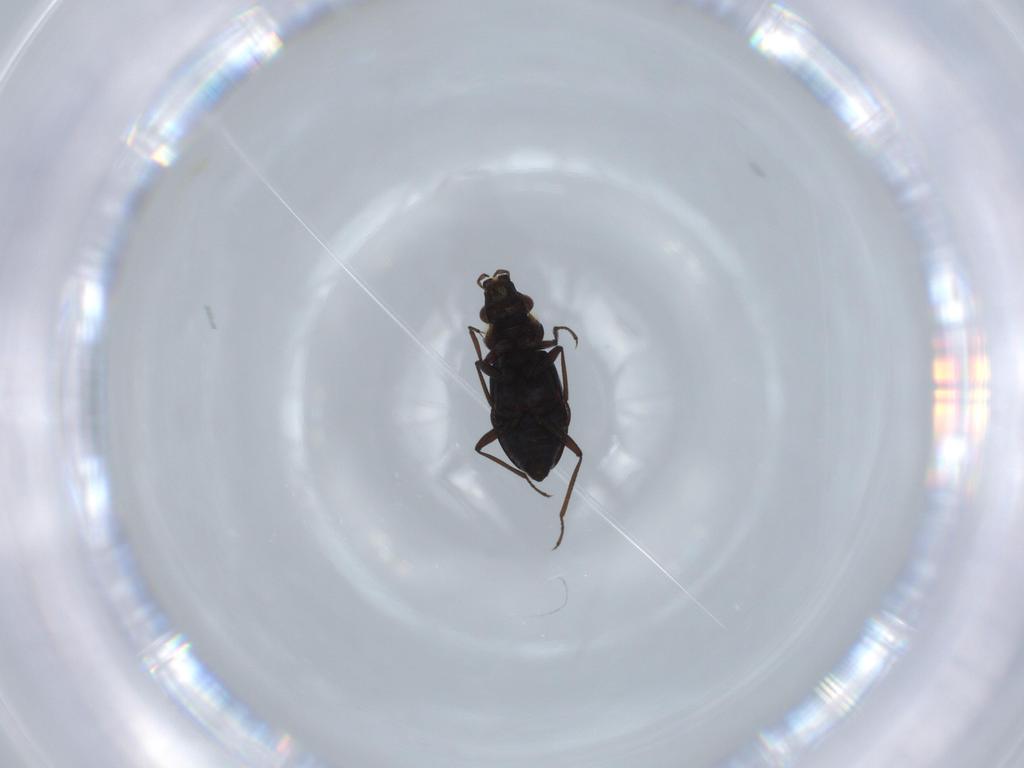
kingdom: Animalia
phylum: Arthropoda
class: Insecta
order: Coleoptera
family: Hydraenidae
